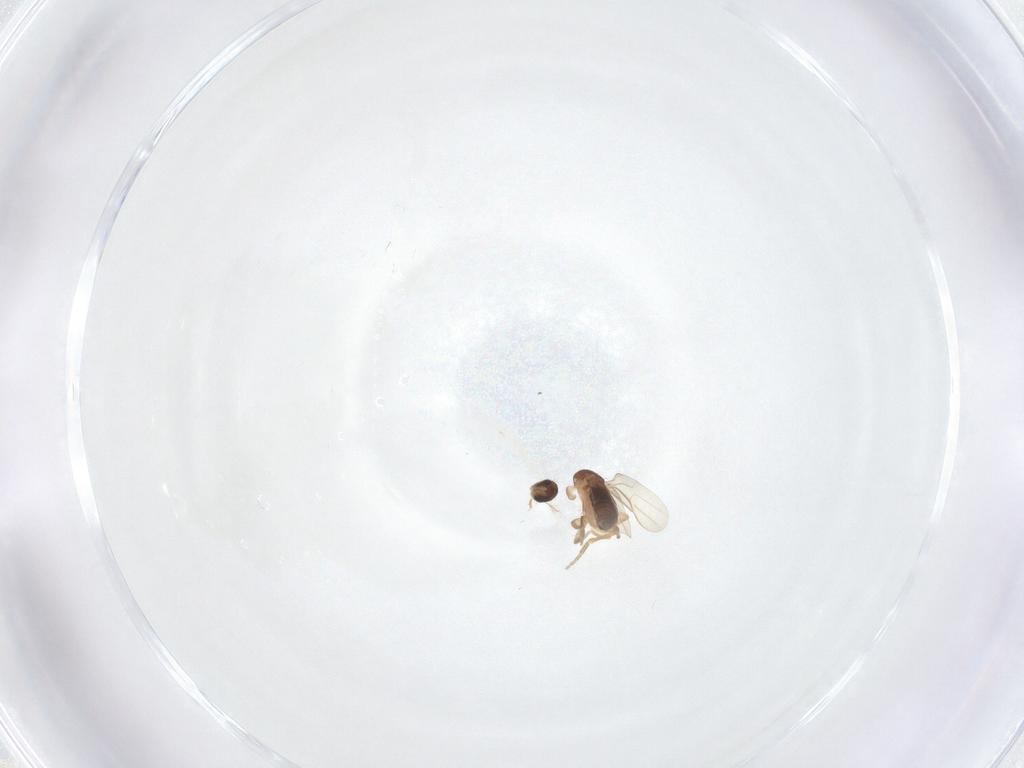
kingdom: Animalia
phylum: Arthropoda
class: Insecta
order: Diptera
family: Phoridae
